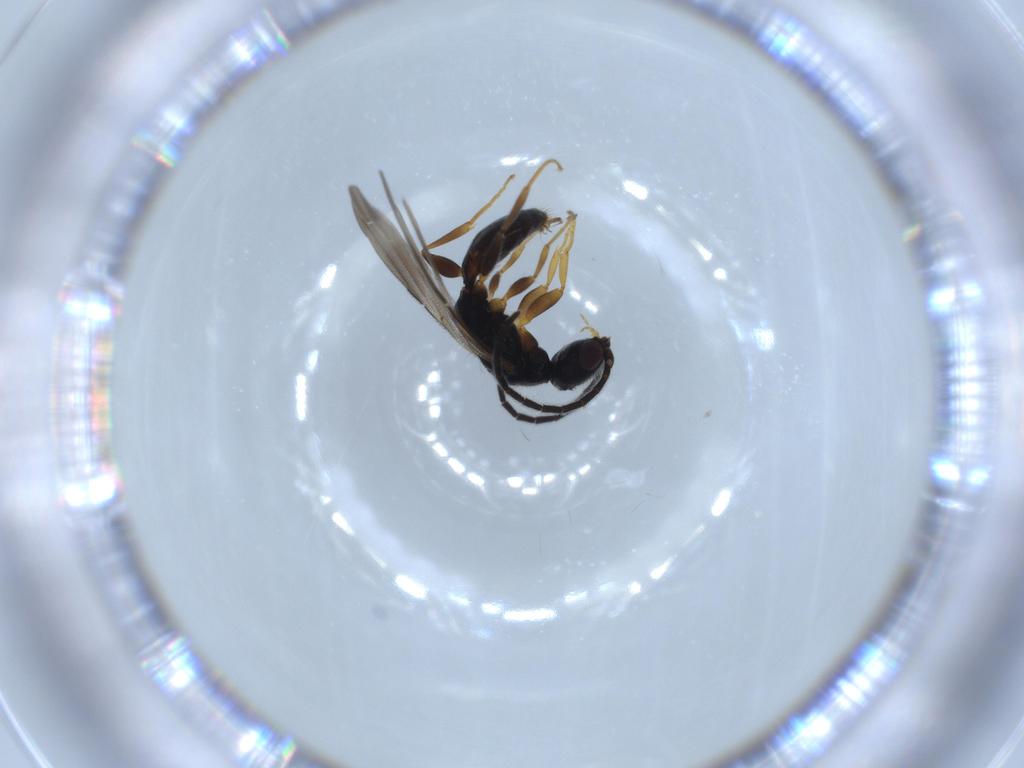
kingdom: Animalia
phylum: Arthropoda
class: Insecta
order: Hymenoptera
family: Bethylidae
